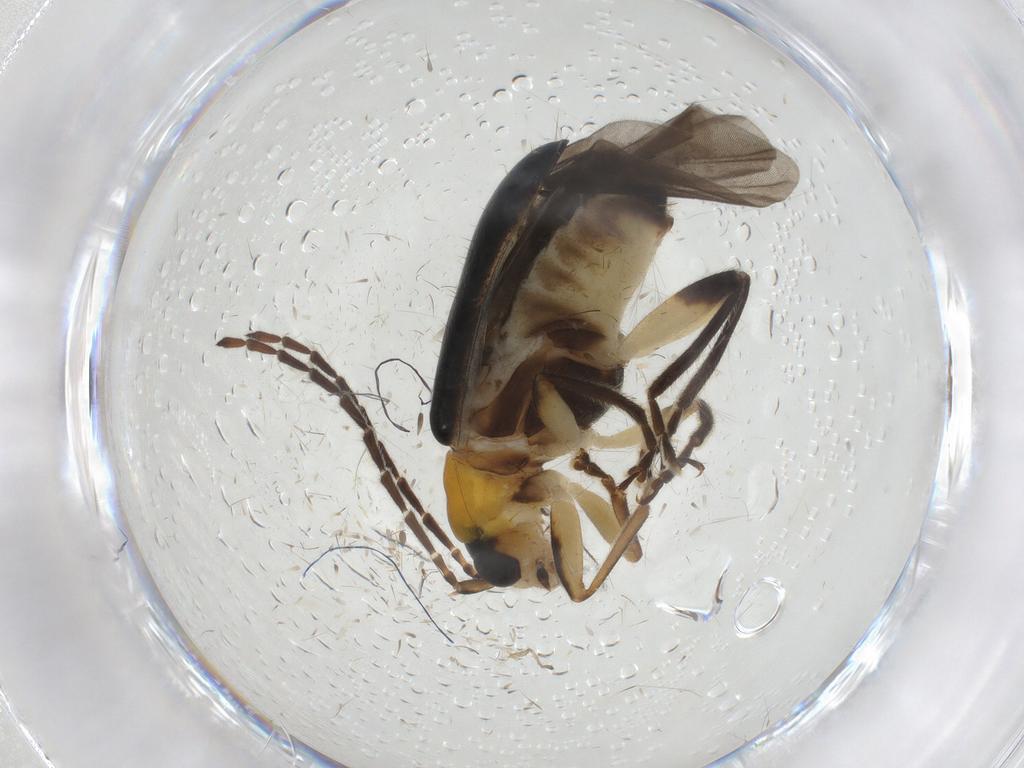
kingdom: Animalia
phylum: Arthropoda
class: Insecta
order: Coleoptera
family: Chrysomelidae
